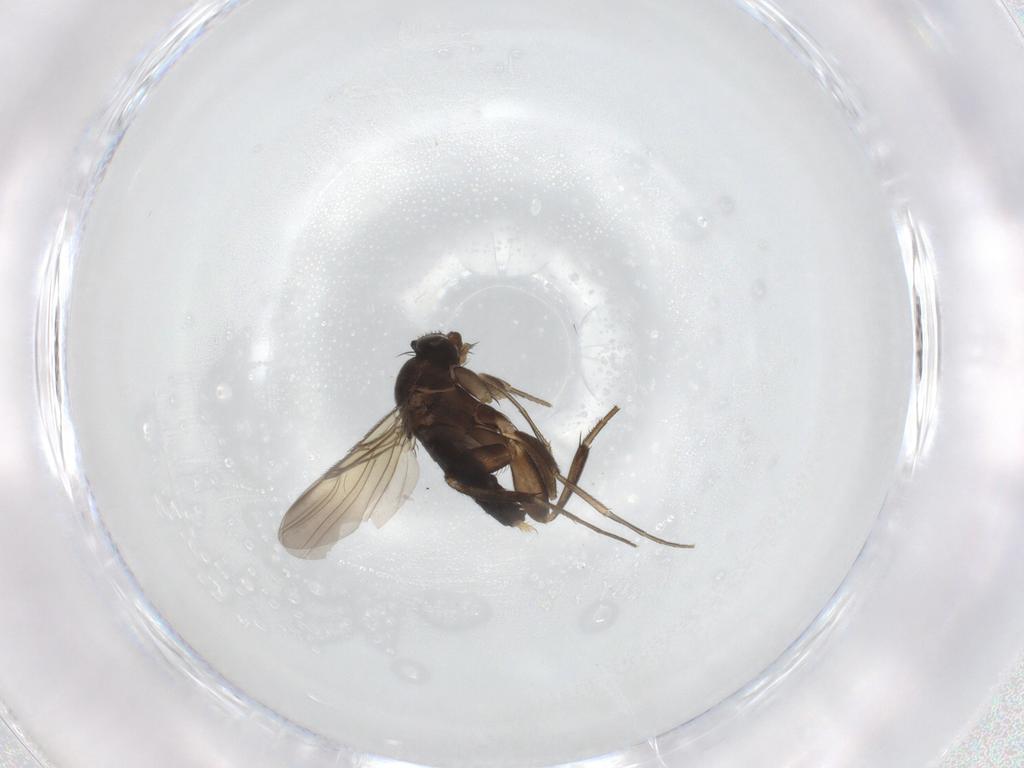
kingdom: Animalia
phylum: Arthropoda
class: Insecta
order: Diptera
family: Phoridae
